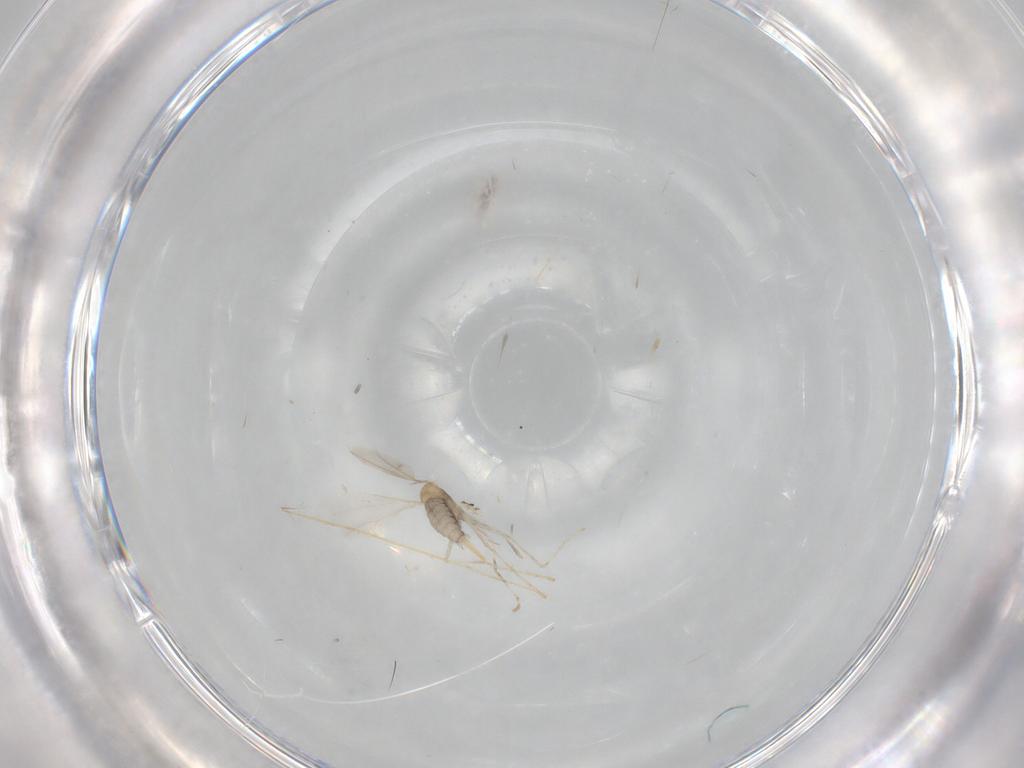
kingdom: Animalia
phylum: Arthropoda
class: Insecta
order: Diptera
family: Cecidomyiidae
